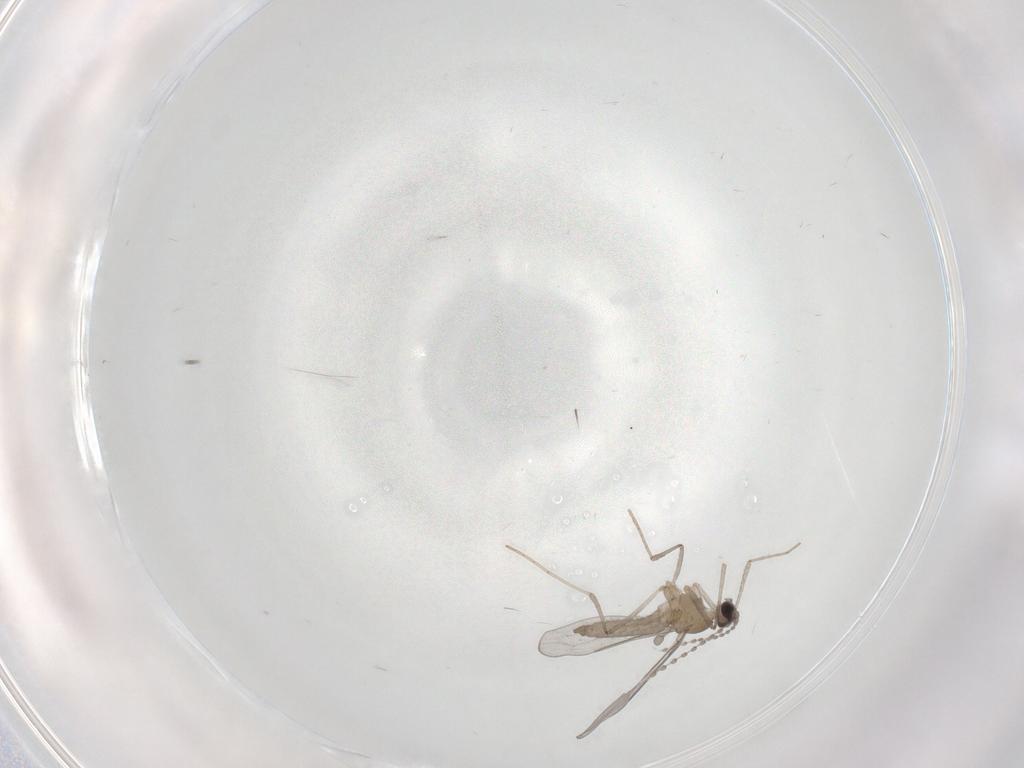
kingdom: Animalia
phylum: Arthropoda
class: Insecta
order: Diptera
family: Cecidomyiidae
